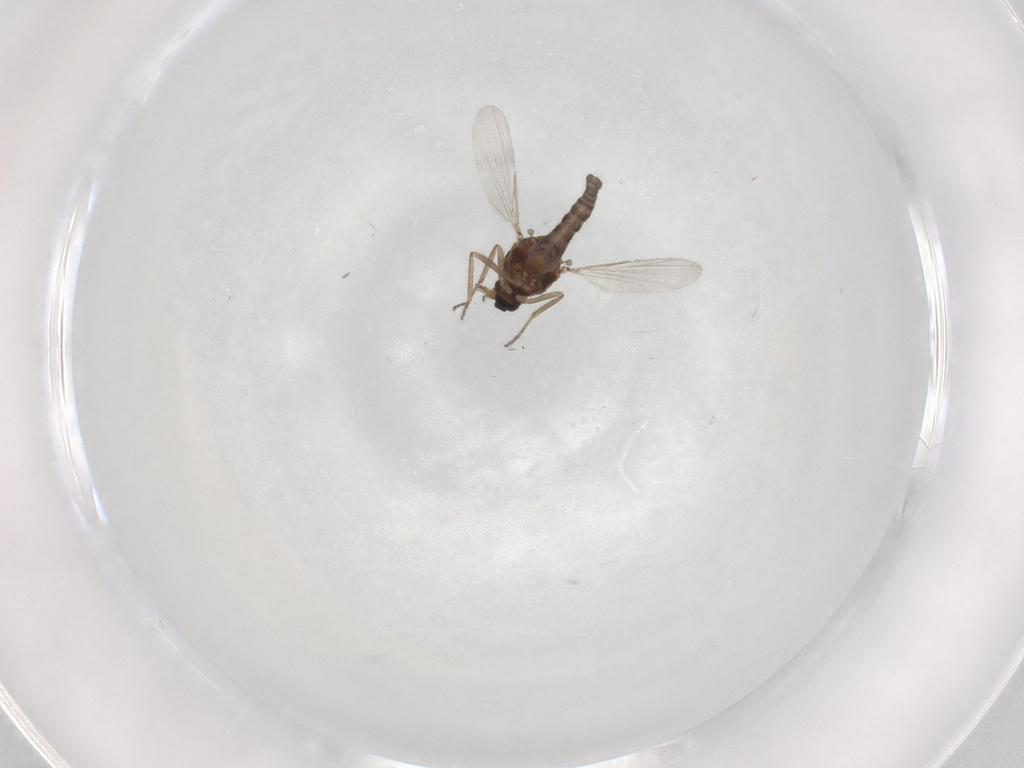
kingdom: Animalia
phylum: Arthropoda
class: Insecta
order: Diptera
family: Ceratopogonidae
